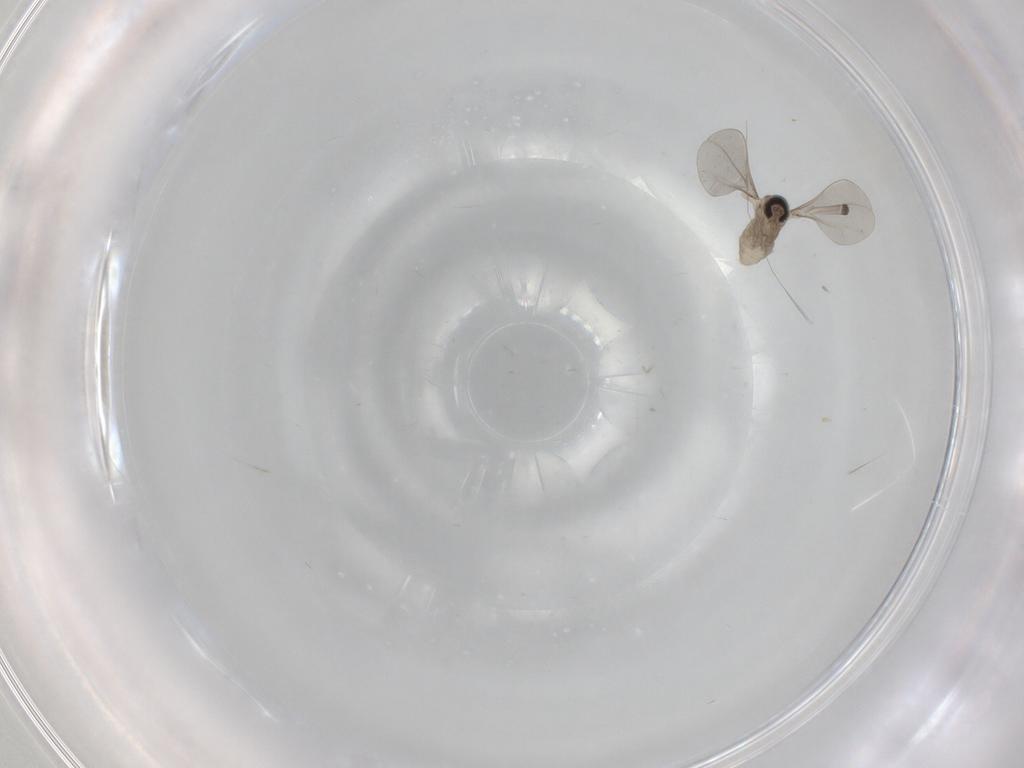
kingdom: Animalia
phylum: Arthropoda
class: Insecta
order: Diptera
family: Cecidomyiidae
